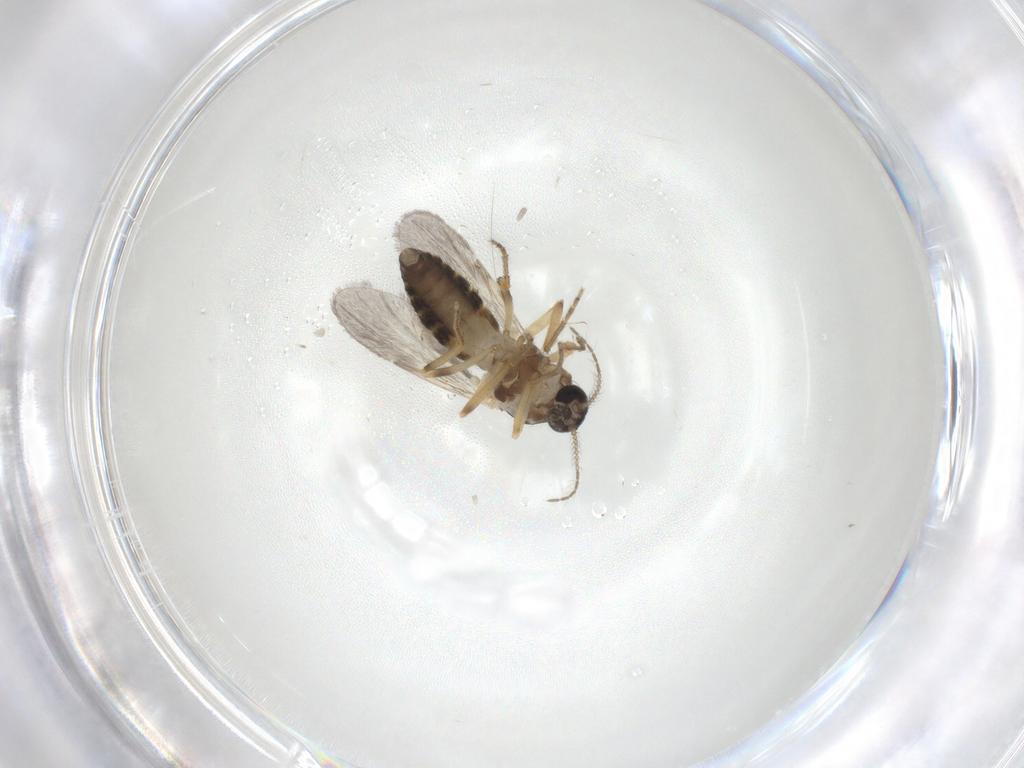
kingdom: Animalia
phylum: Arthropoda
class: Insecta
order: Diptera
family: Ceratopogonidae
